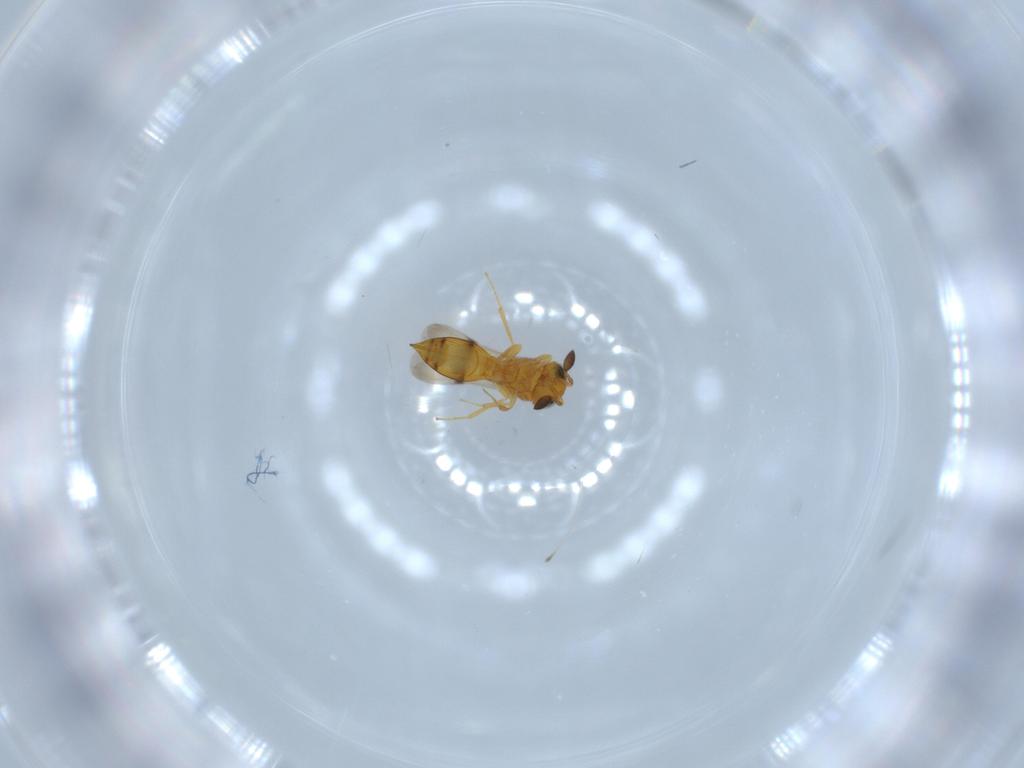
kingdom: Animalia
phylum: Arthropoda
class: Insecta
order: Hymenoptera
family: Scelionidae
